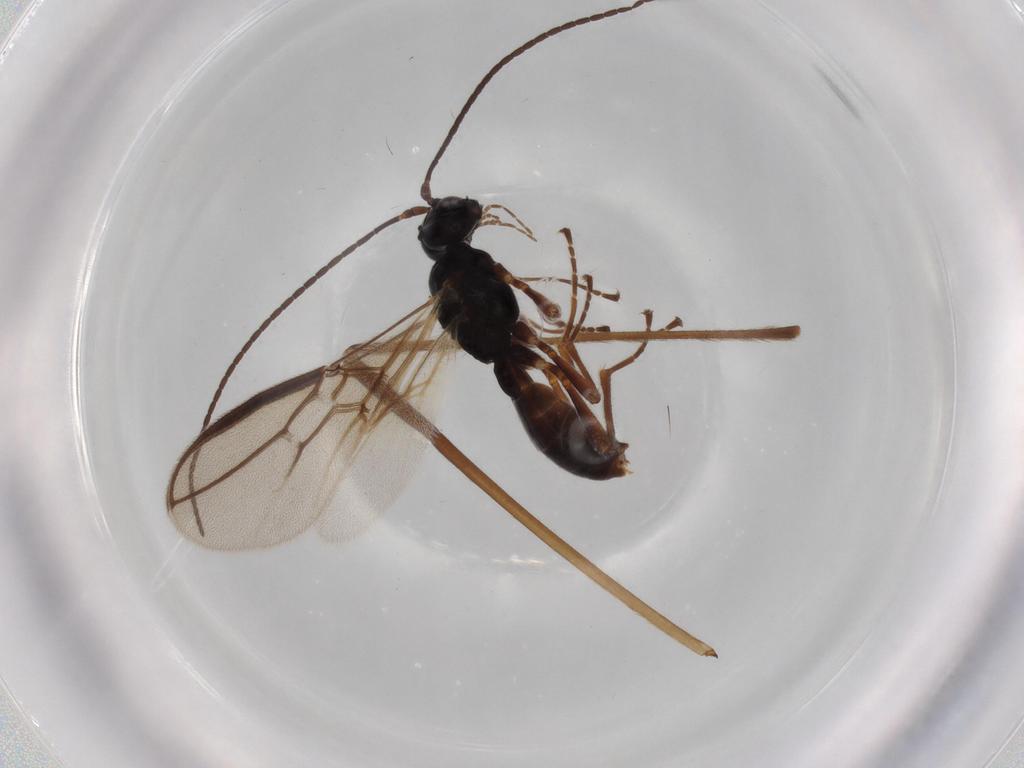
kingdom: Animalia
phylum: Arthropoda
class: Insecta
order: Hymenoptera
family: Braconidae
